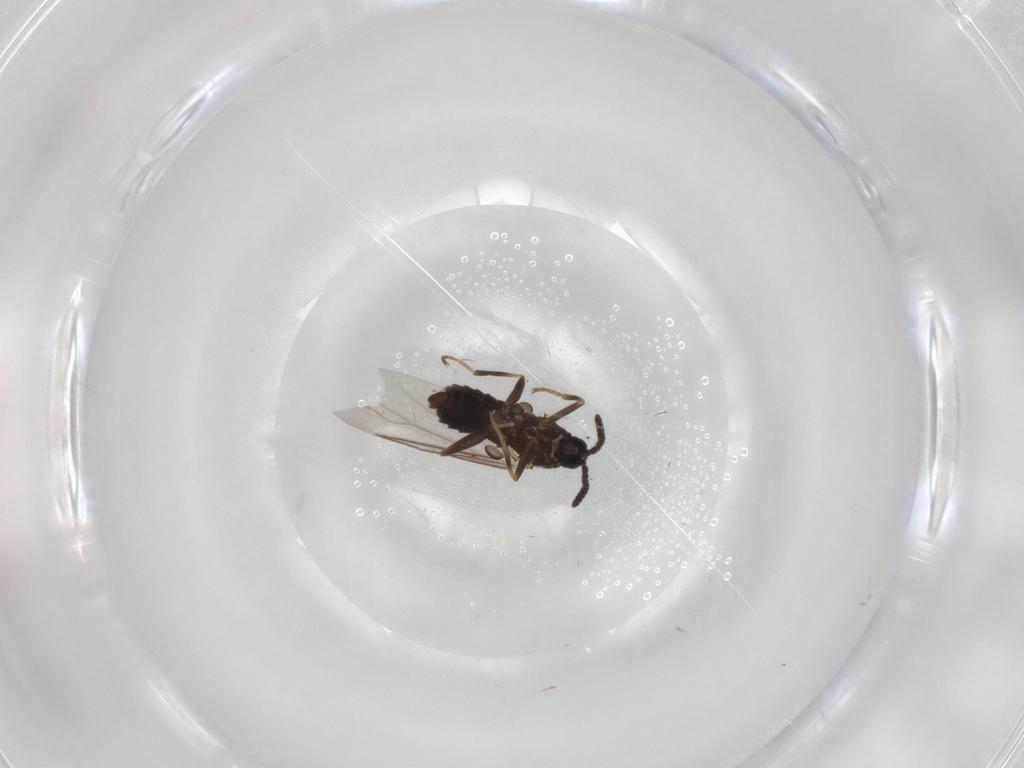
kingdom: Animalia
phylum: Arthropoda
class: Insecta
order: Diptera
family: Scatopsidae
